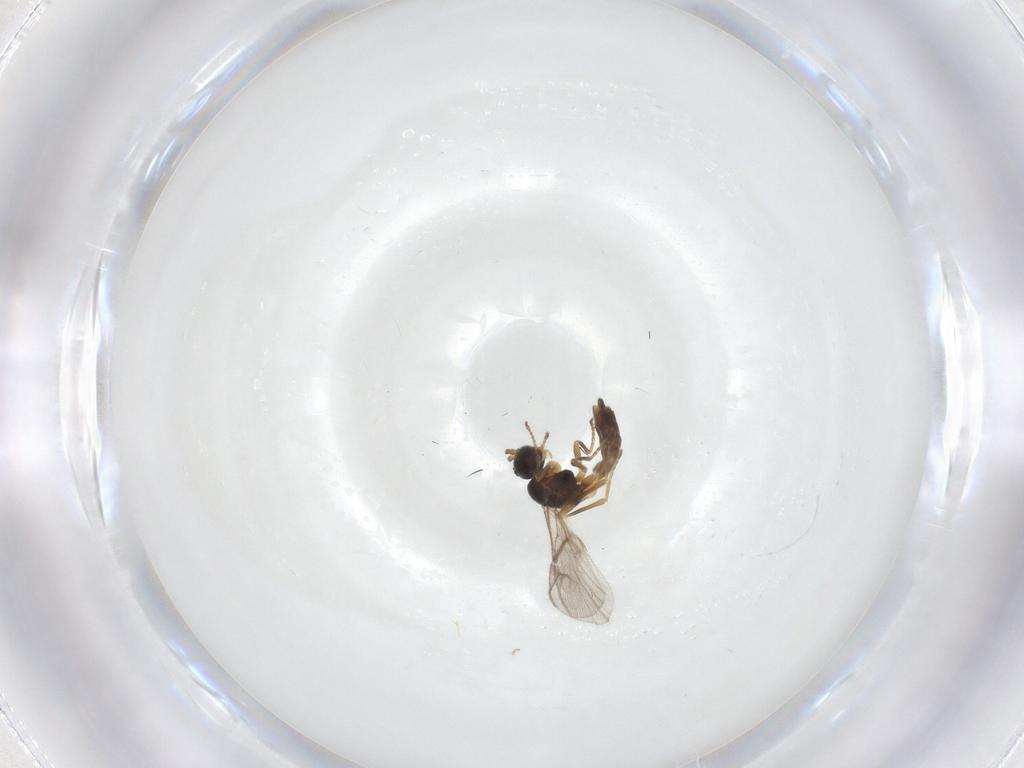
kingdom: Animalia
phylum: Arthropoda
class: Insecta
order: Hymenoptera
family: Braconidae
